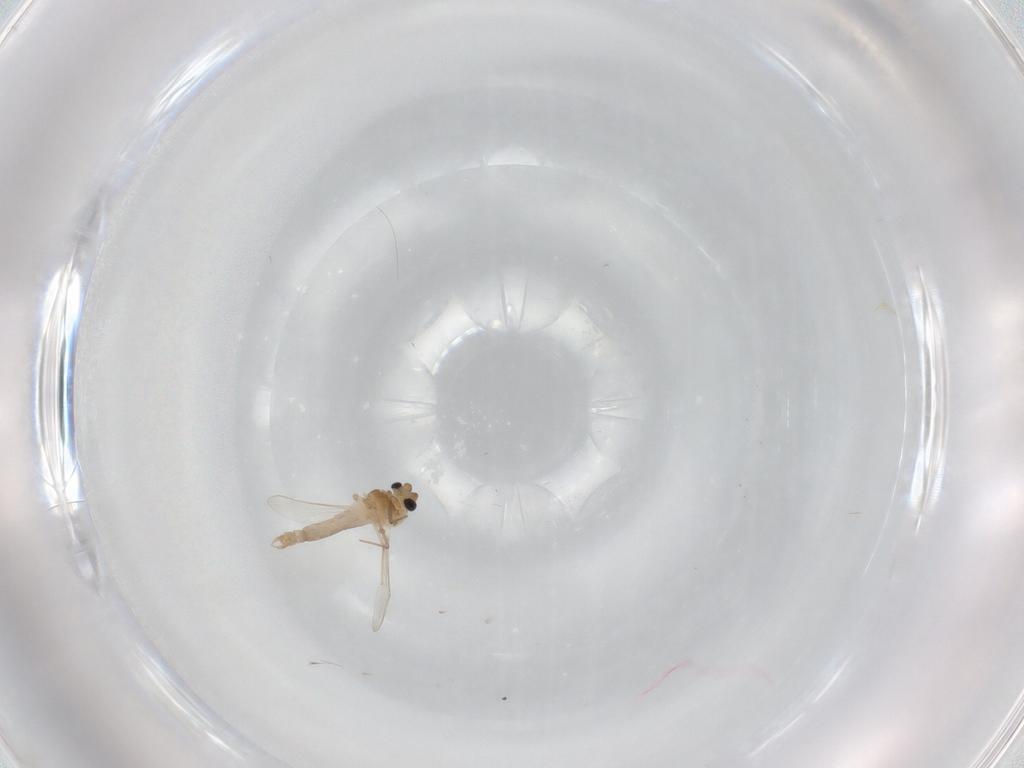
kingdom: Animalia
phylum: Arthropoda
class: Insecta
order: Diptera
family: Chironomidae
